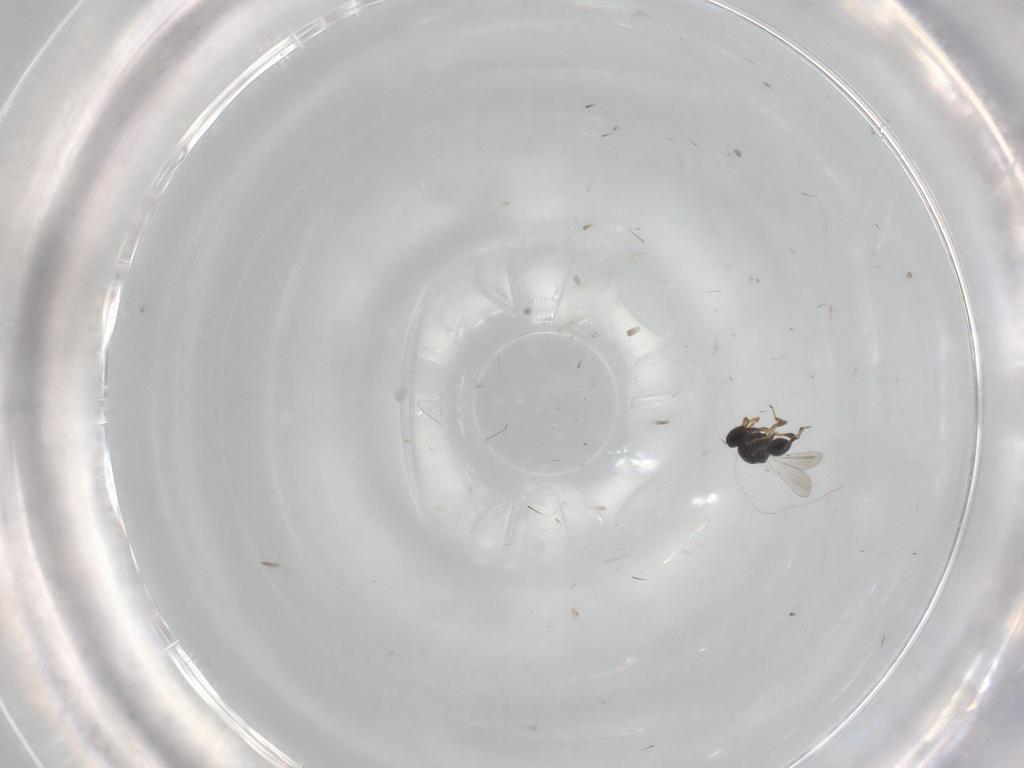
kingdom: Animalia
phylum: Arthropoda
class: Insecta
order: Hymenoptera
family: Platygastridae
